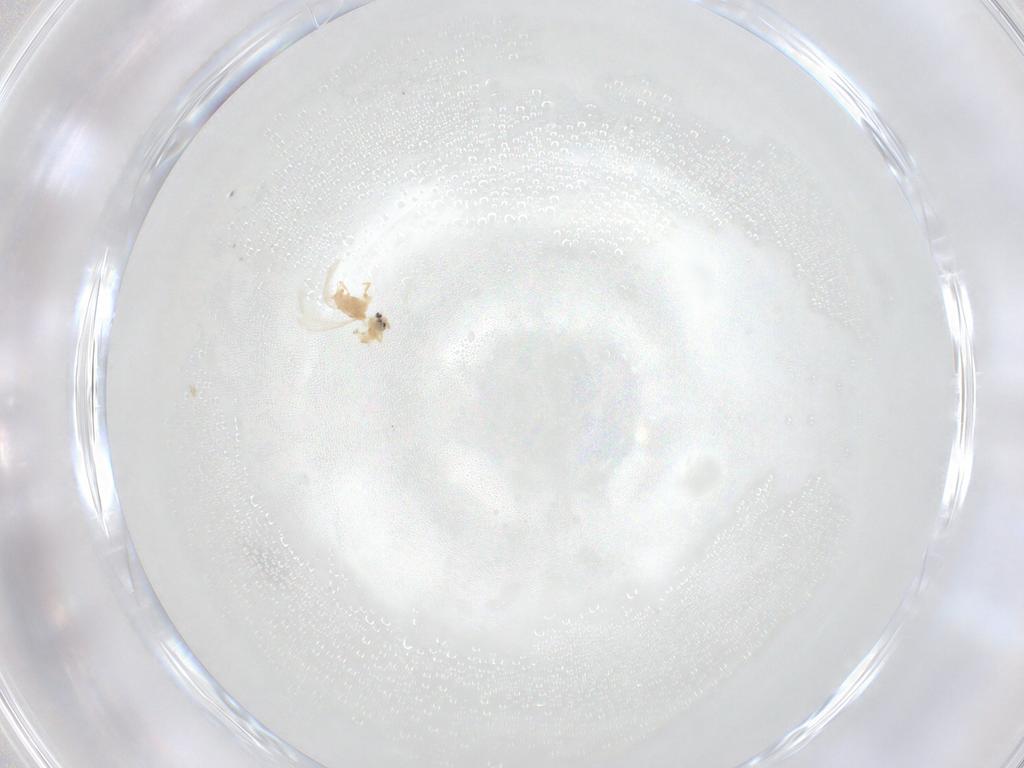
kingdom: Animalia
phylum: Arthropoda
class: Insecta
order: Hemiptera
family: Diaspididae
